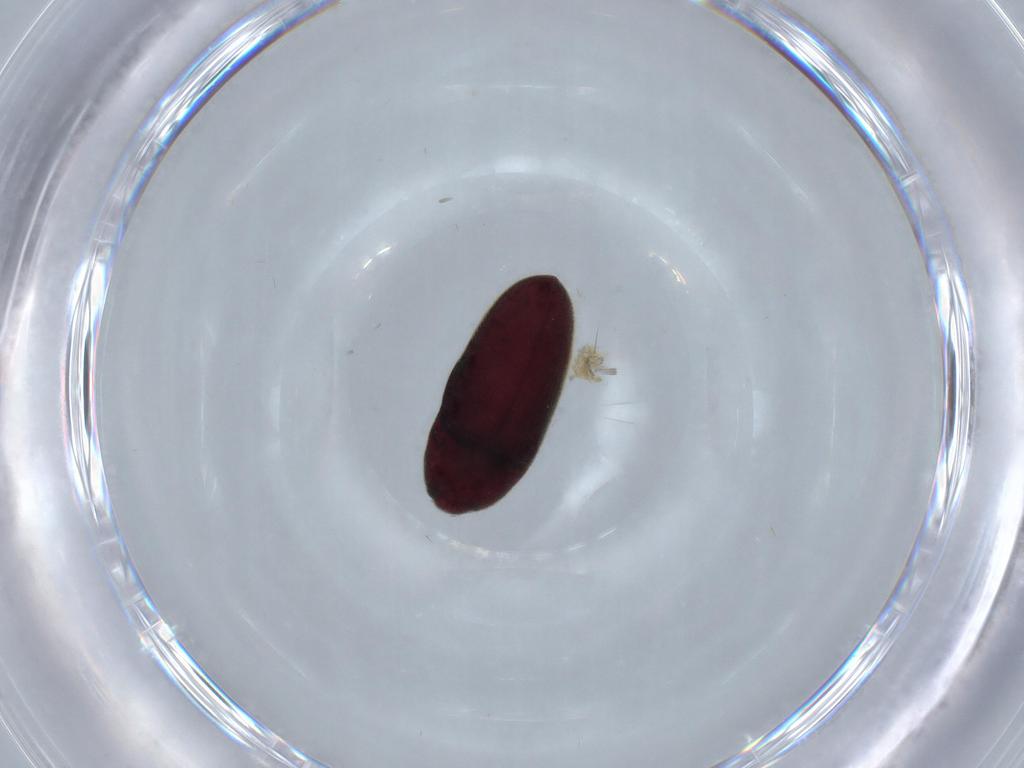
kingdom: Animalia
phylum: Arthropoda
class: Insecta
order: Coleoptera
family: Throscidae
